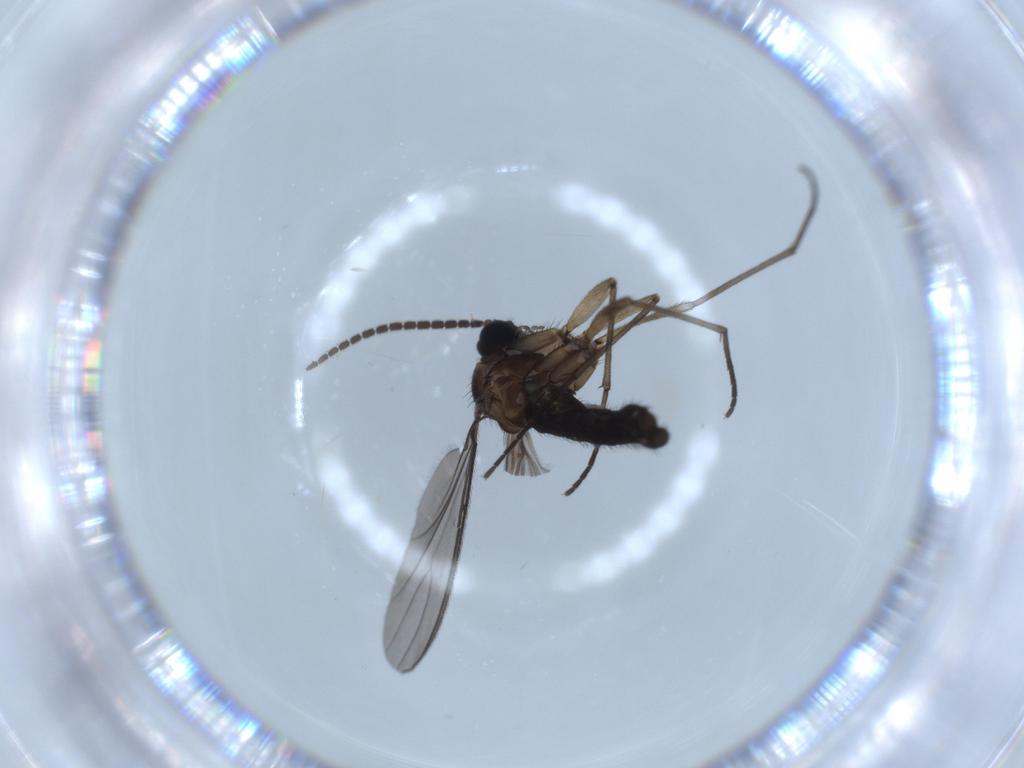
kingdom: Animalia
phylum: Arthropoda
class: Insecta
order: Diptera
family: Sciaridae
